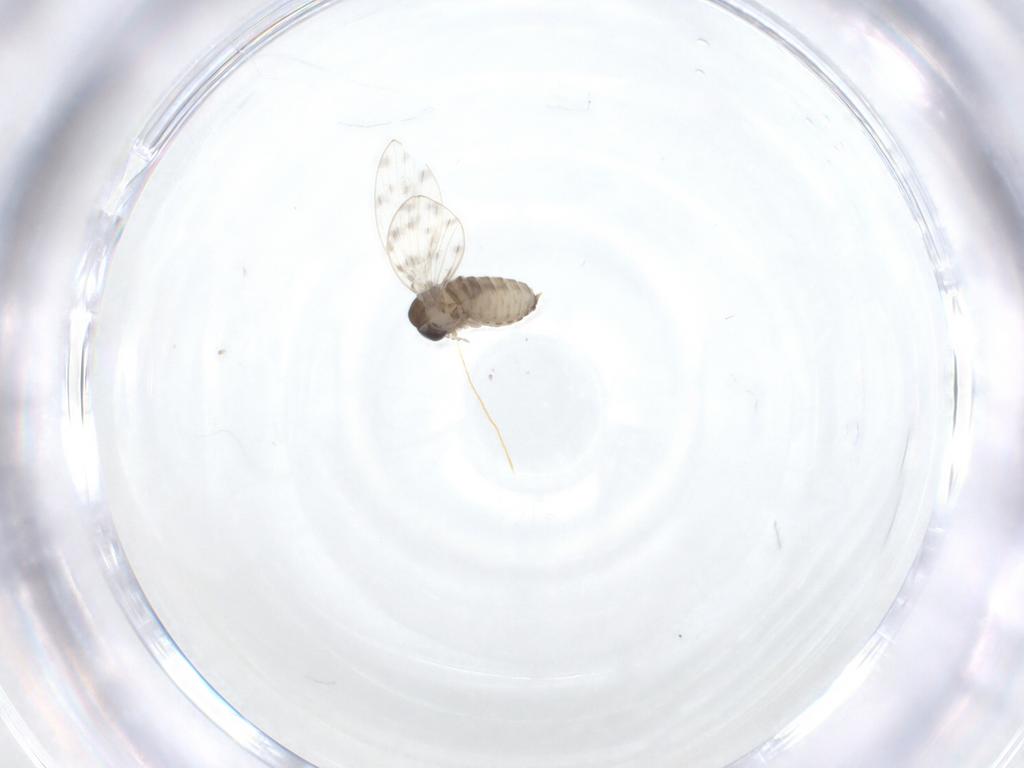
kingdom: Animalia
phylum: Arthropoda
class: Insecta
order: Diptera
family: Psychodidae
